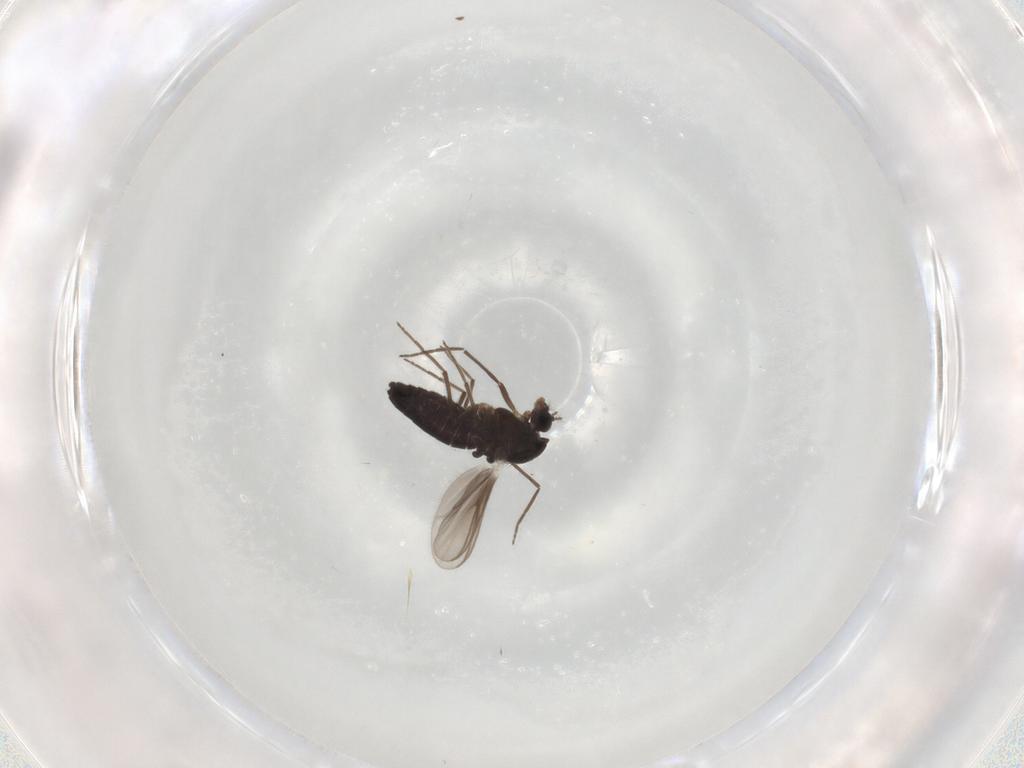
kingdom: Animalia
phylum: Arthropoda
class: Insecta
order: Diptera
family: Chironomidae
